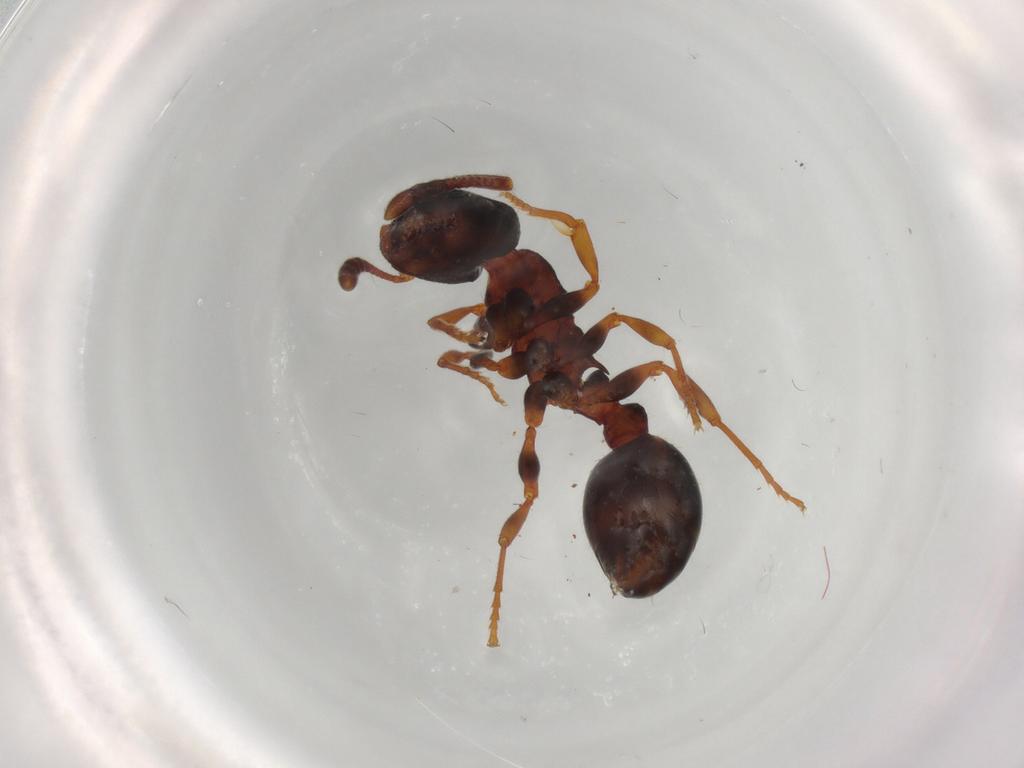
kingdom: Animalia
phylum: Arthropoda
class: Insecta
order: Hymenoptera
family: Formicidae
